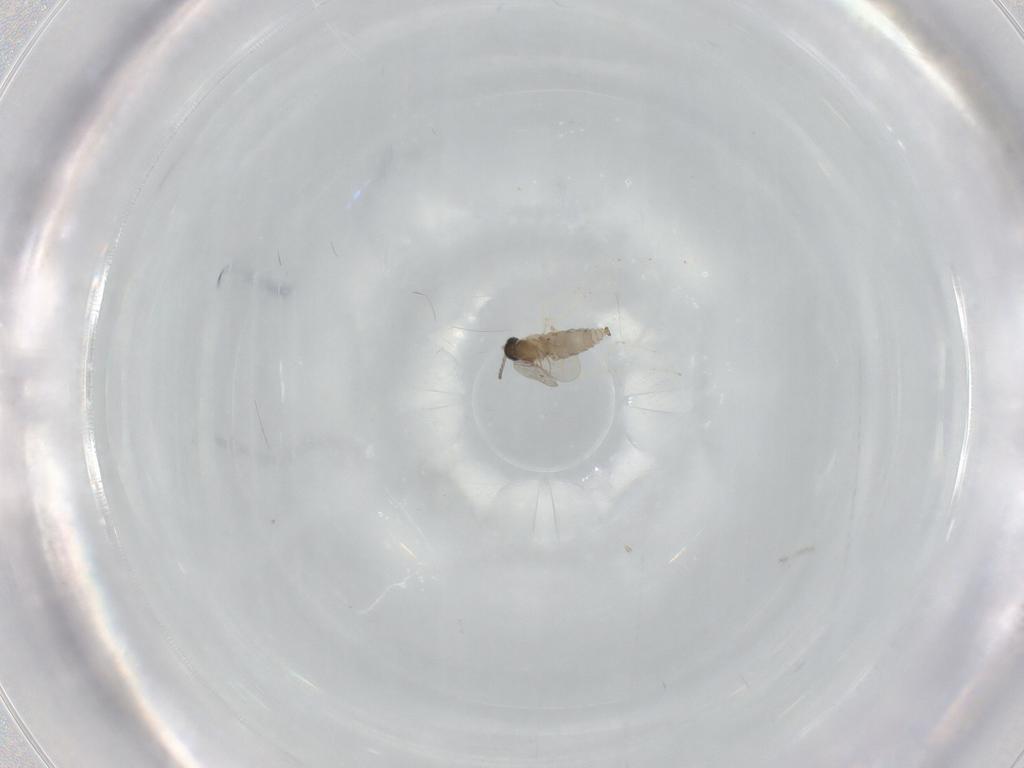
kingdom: Animalia
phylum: Arthropoda
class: Insecta
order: Diptera
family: Cecidomyiidae
